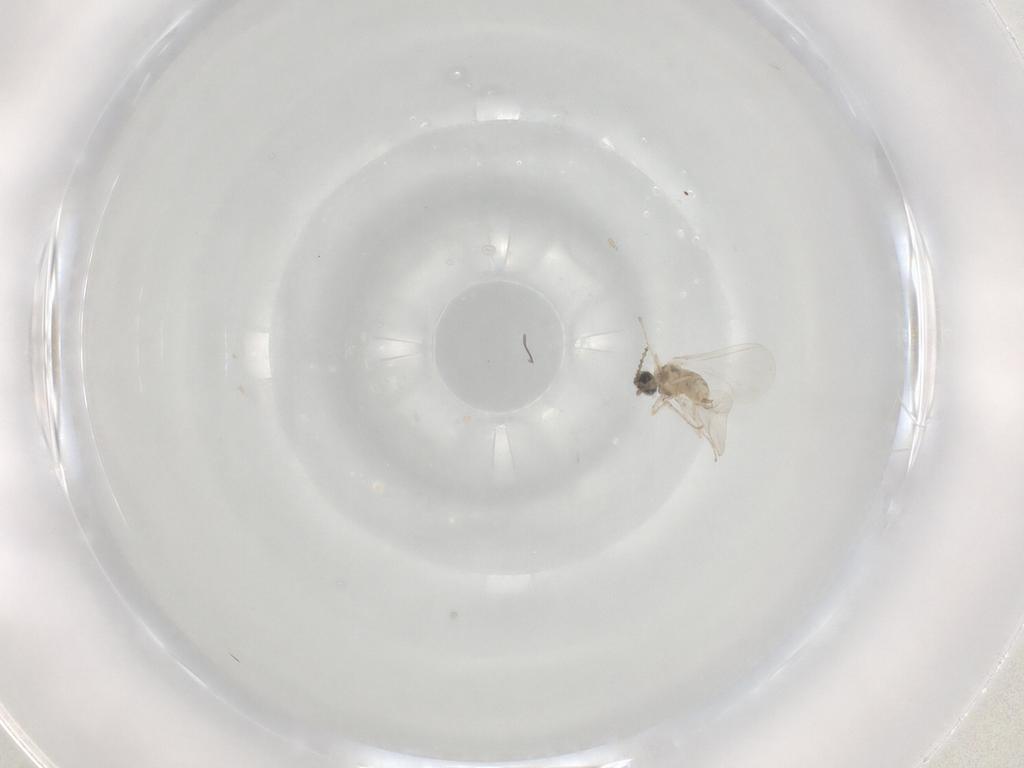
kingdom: Animalia
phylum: Arthropoda
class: Insecta
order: Diptera
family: Cecidomyiidae
